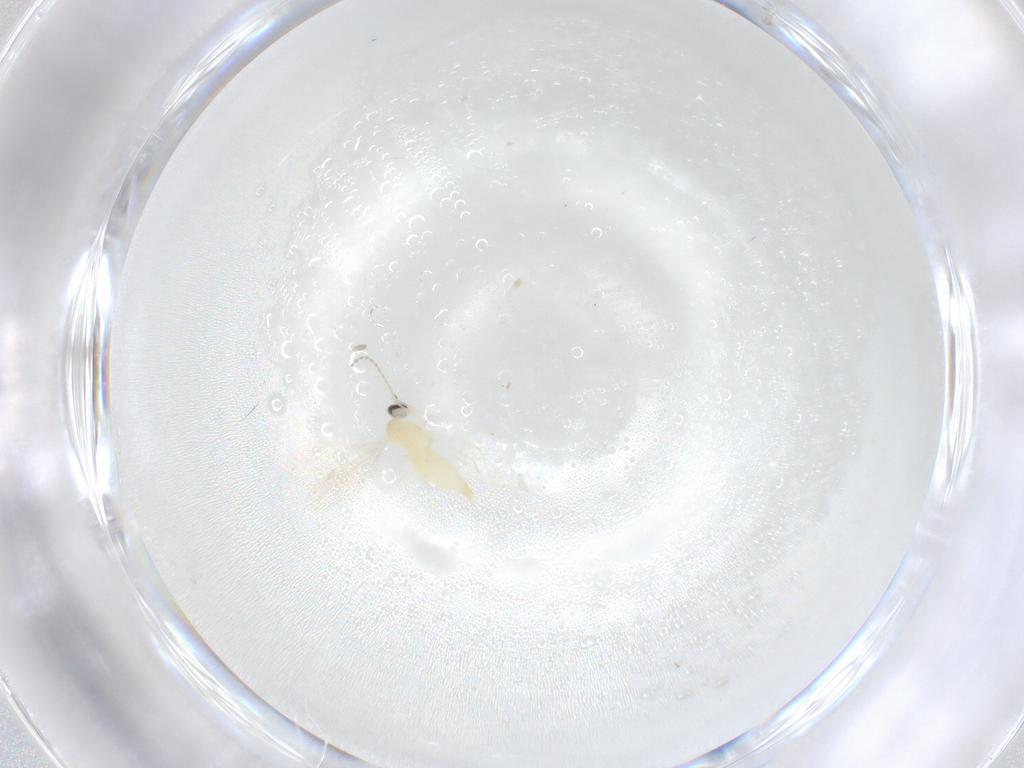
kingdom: Animalia
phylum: Arthropoda
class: Insecta
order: Diptera
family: Cecidomyiidae
